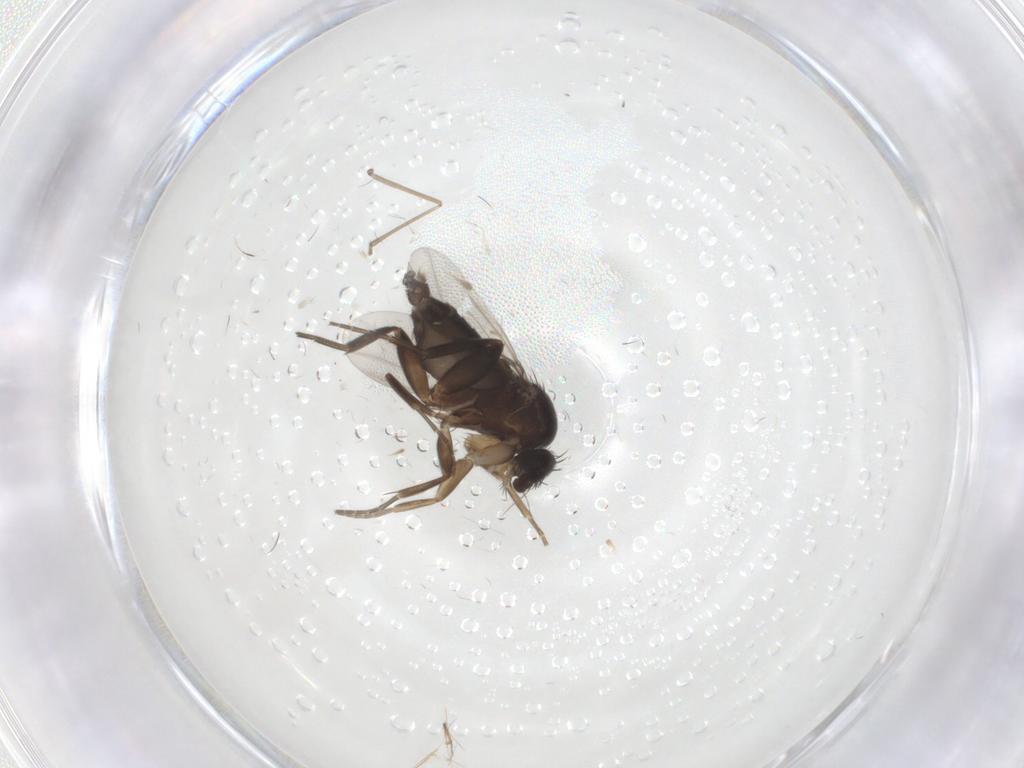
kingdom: Animalia
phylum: Arthropoda
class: Insecta
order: Diptera
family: Phoridae
